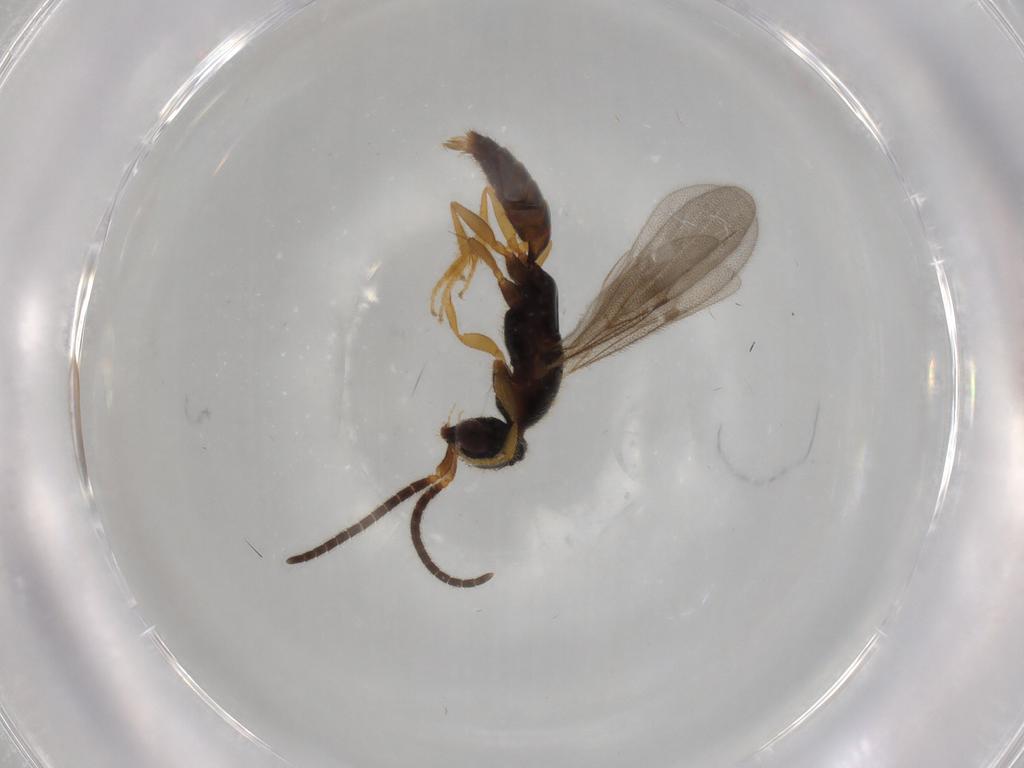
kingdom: Animalia
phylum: Arthropoda
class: Insecta
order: Hymenoptera
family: Bethylidae
